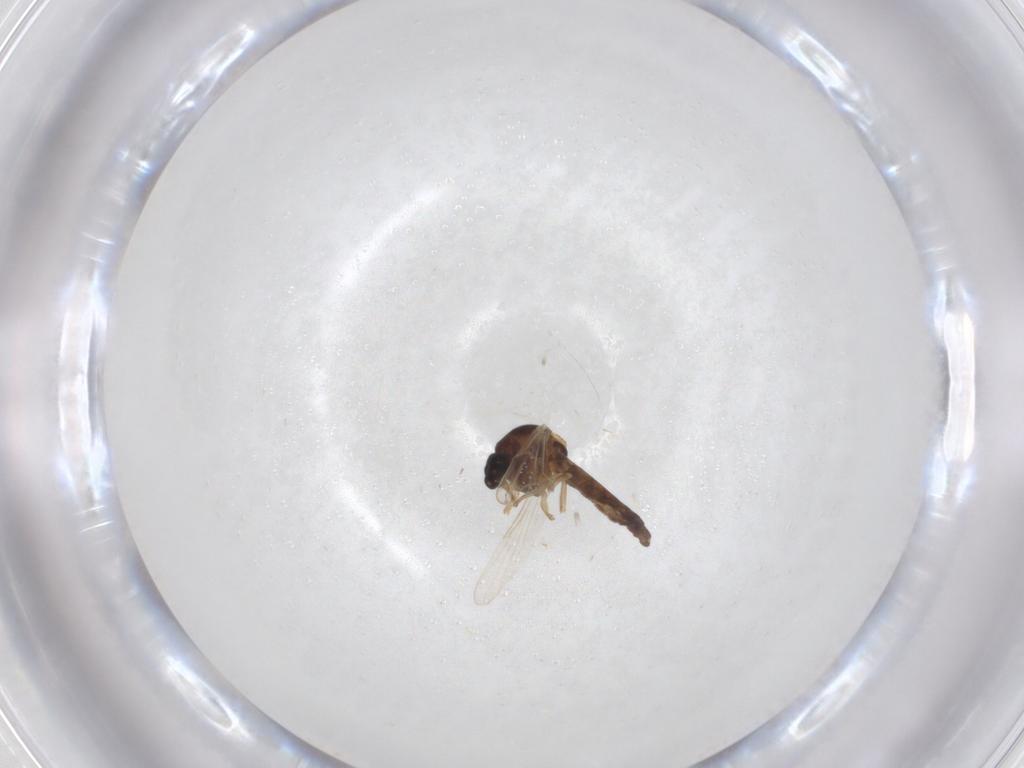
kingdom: Animalia
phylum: Arthropoda
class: Insecta
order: Diptera
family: Ceratopogonidae
